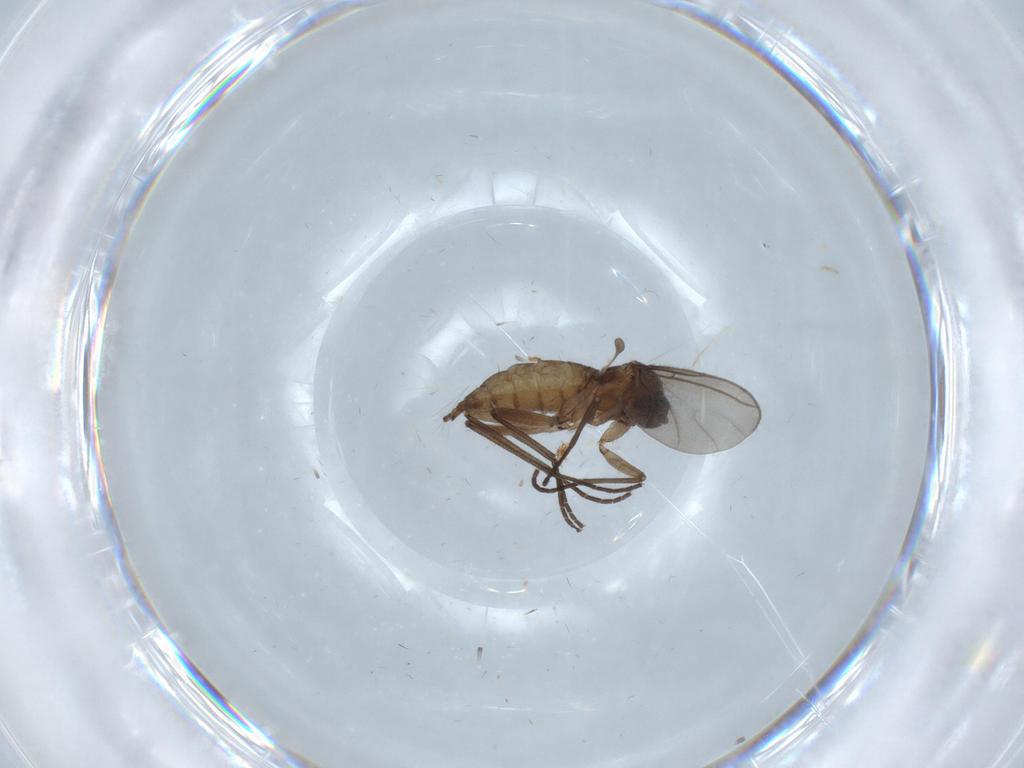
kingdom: Animalia
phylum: Arthropoda
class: Insecta
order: Diptera
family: Sciaridae
